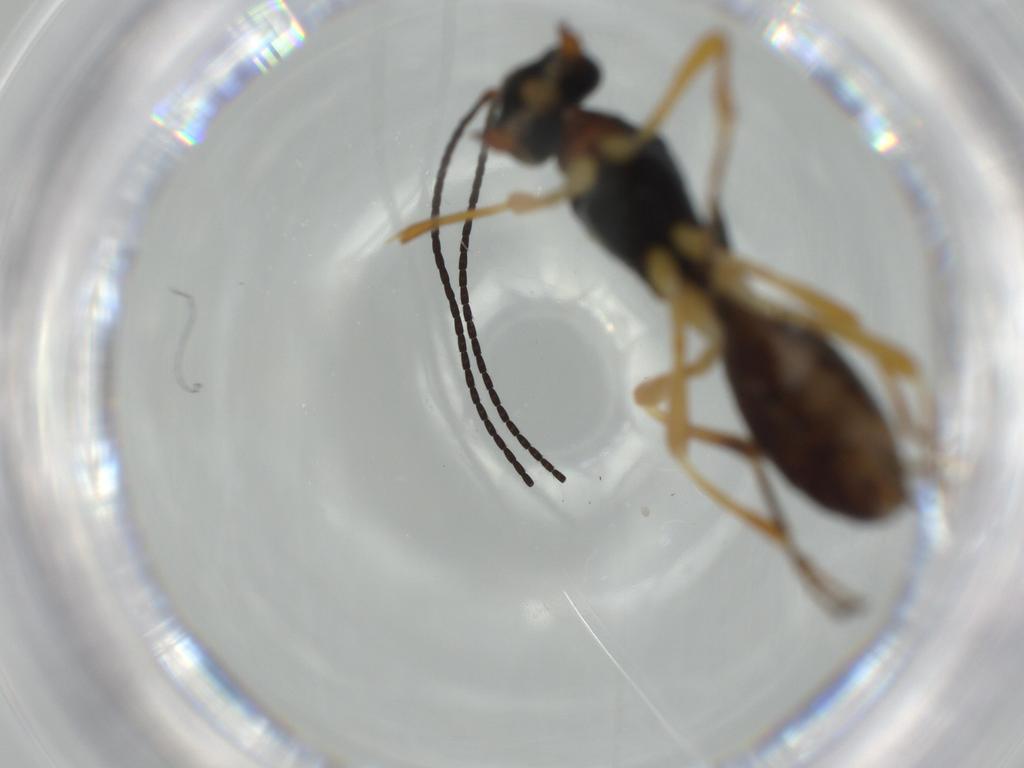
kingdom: Animalia
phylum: Arthropoda
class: Insecta
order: Hymenoptera
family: Braconidae
